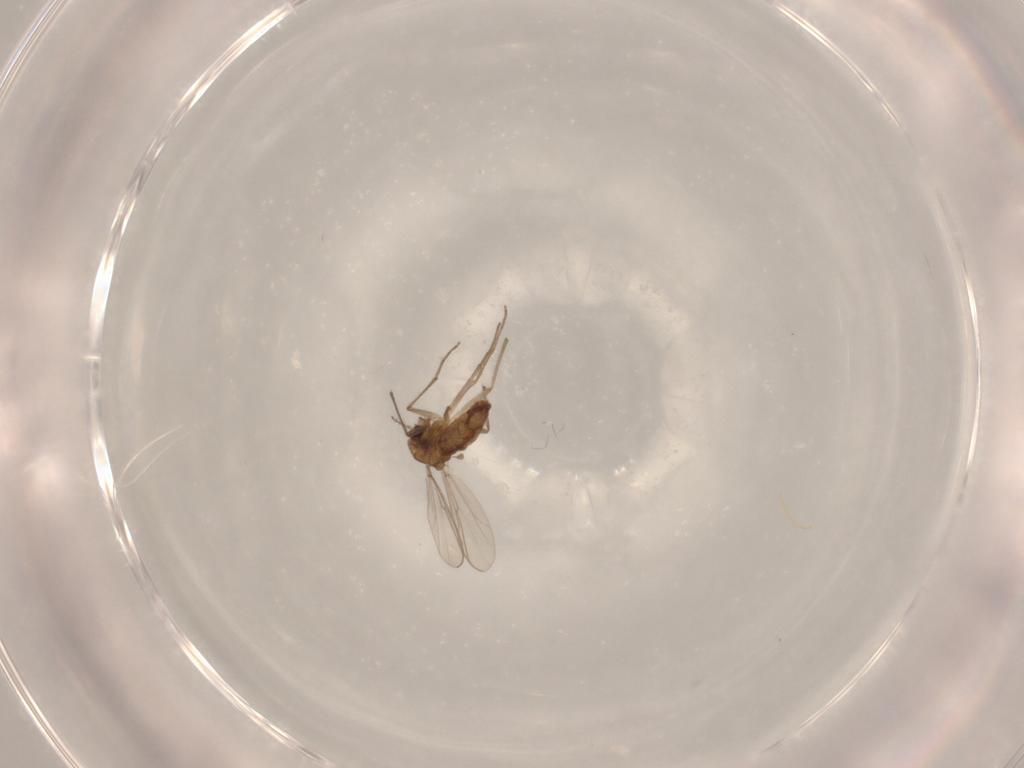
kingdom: Animalia
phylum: Arthropoda
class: Insecta
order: Diptera
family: Chironomidae
